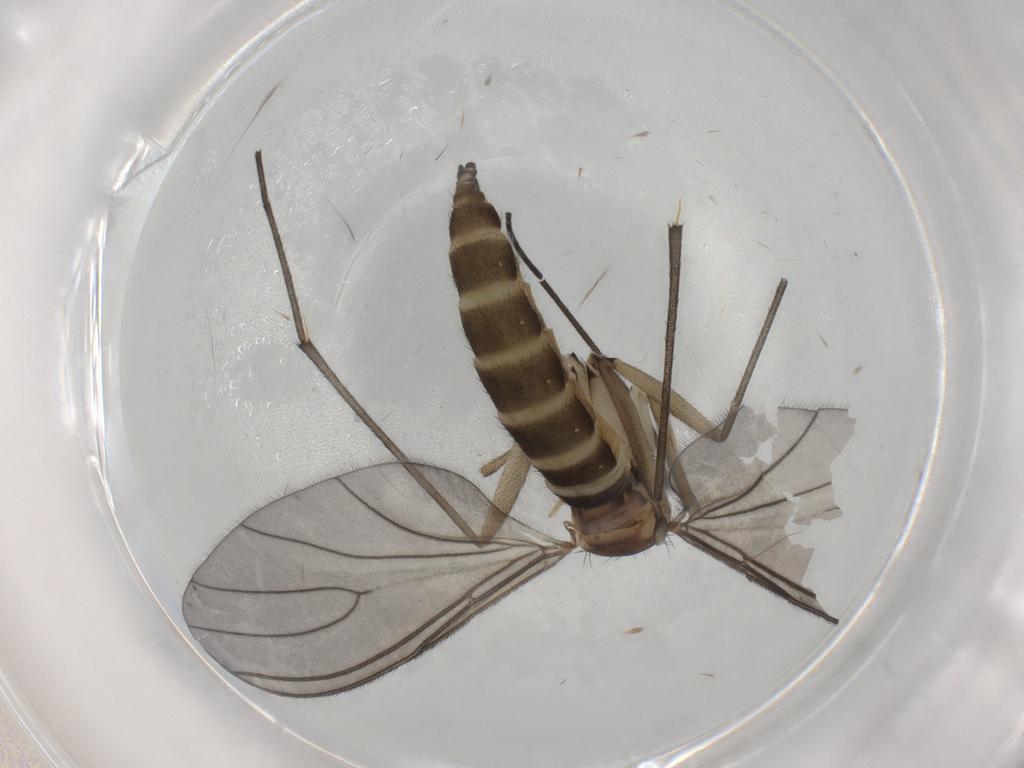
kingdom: Animalia
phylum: Arthropoda
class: Insecta
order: Diptera
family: Sciaridae
